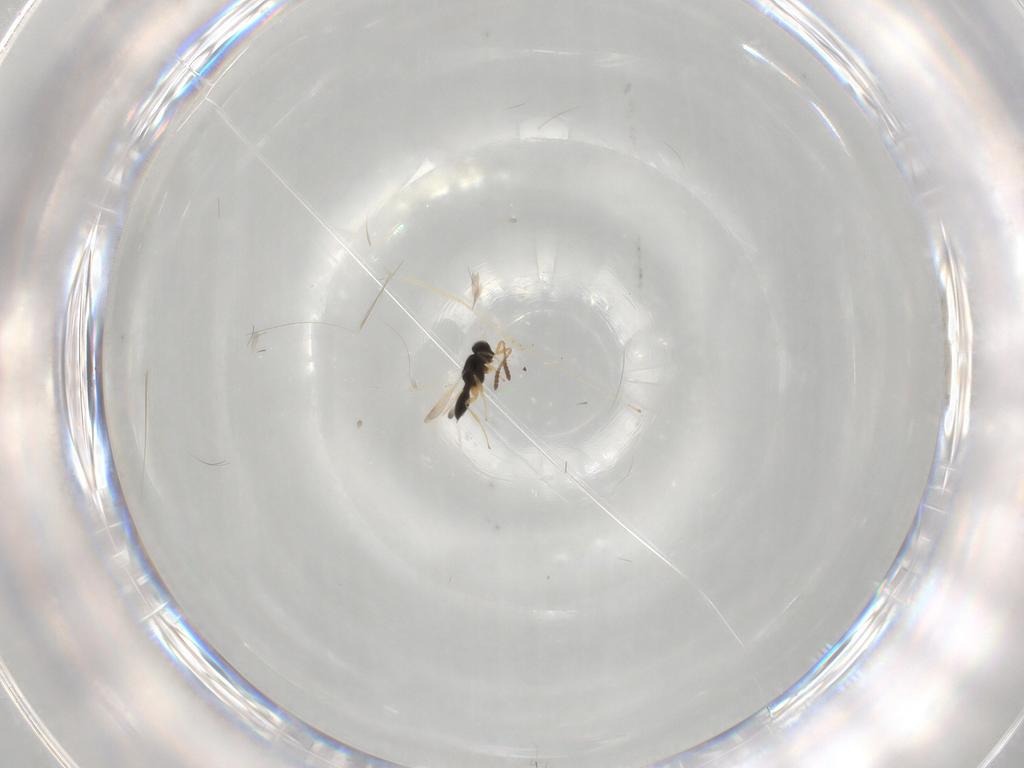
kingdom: Animalia
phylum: Arthropoda
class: Insecta
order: Hymenoptera
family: Scelionidae
